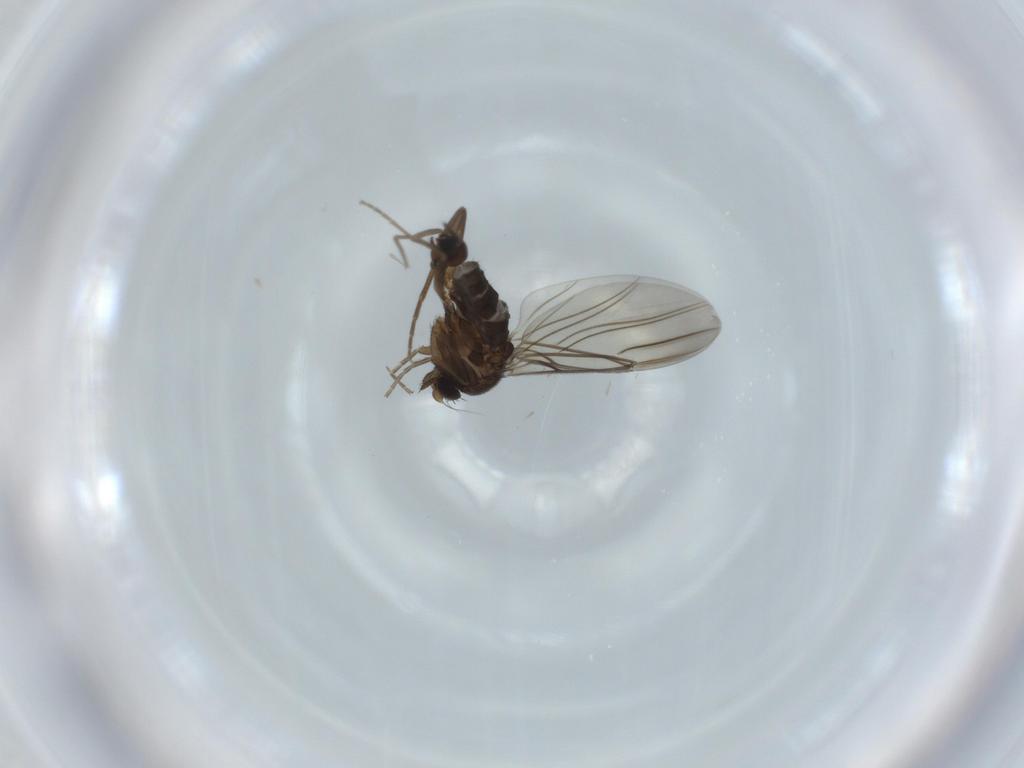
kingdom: Animalia
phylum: Arthropoda
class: Insecta
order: Diptera
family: Cecidomyiidae
